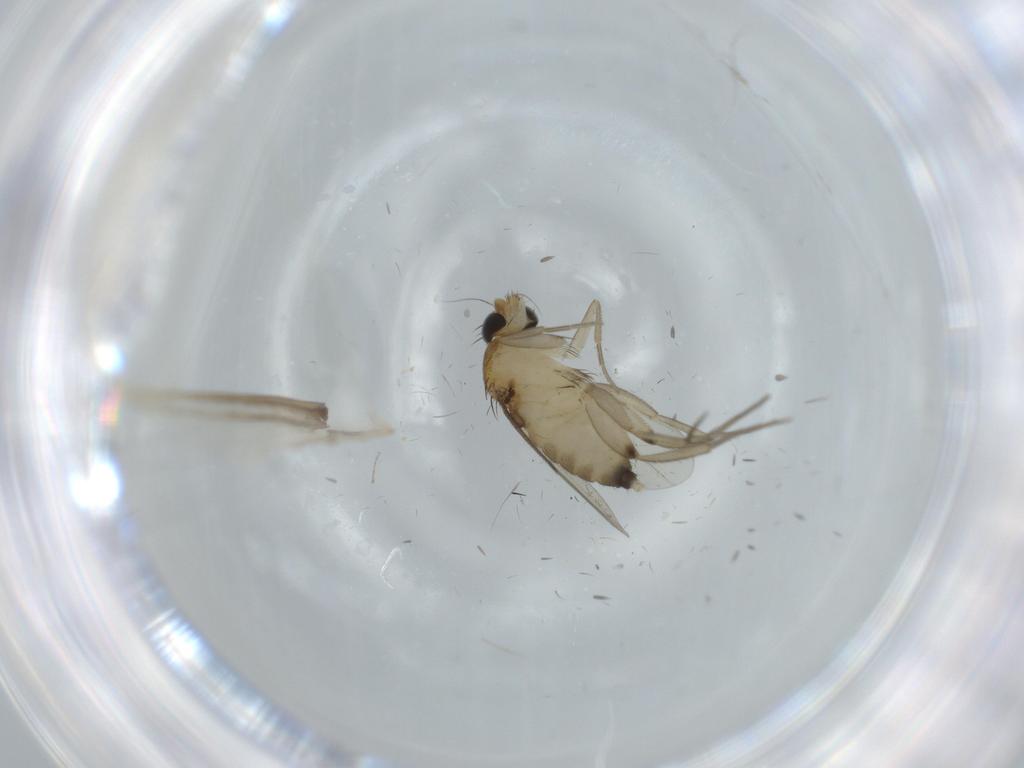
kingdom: Animalia
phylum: Arthropoda
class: Insecta
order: Diptera
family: Phoridae
